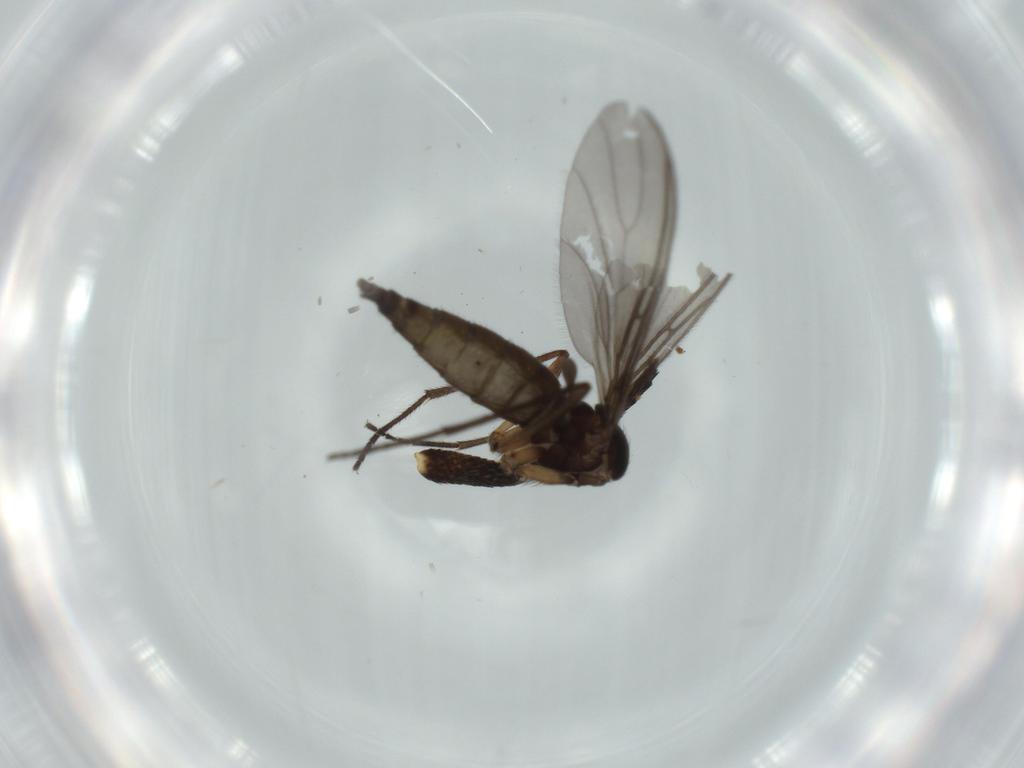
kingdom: Animalia
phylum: Arthropoda
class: Insecta
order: Diptera
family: Sciaridae
